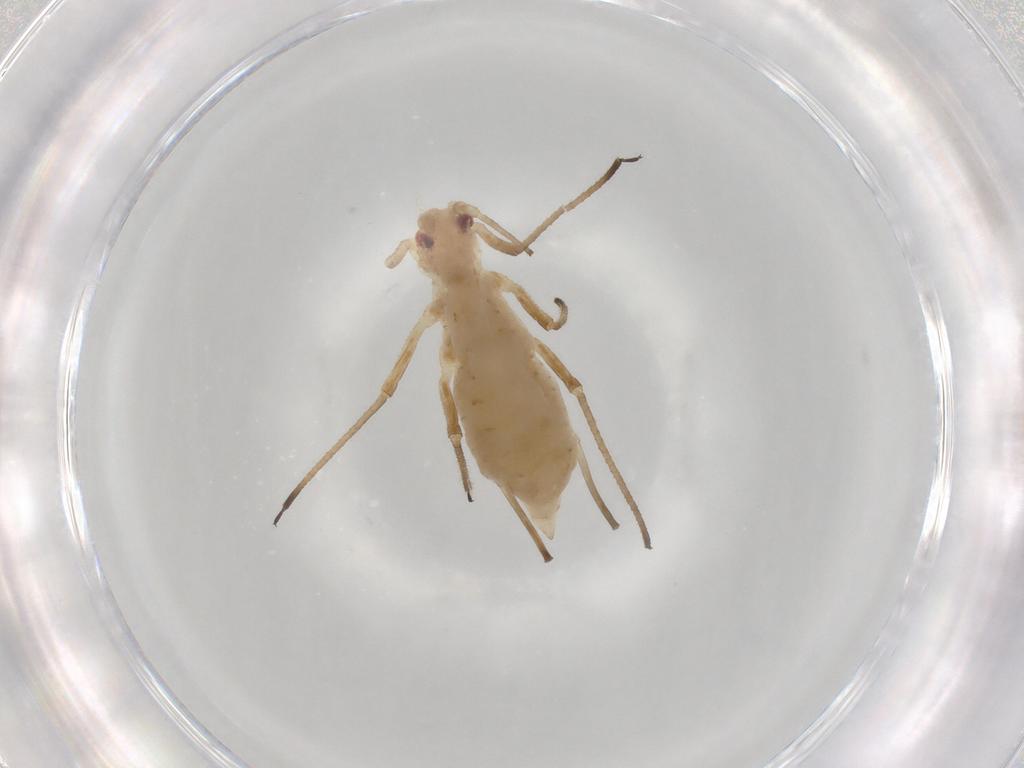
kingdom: Animalia
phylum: Arthropoda
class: Insecta
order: Hemiptera
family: Aphididae
